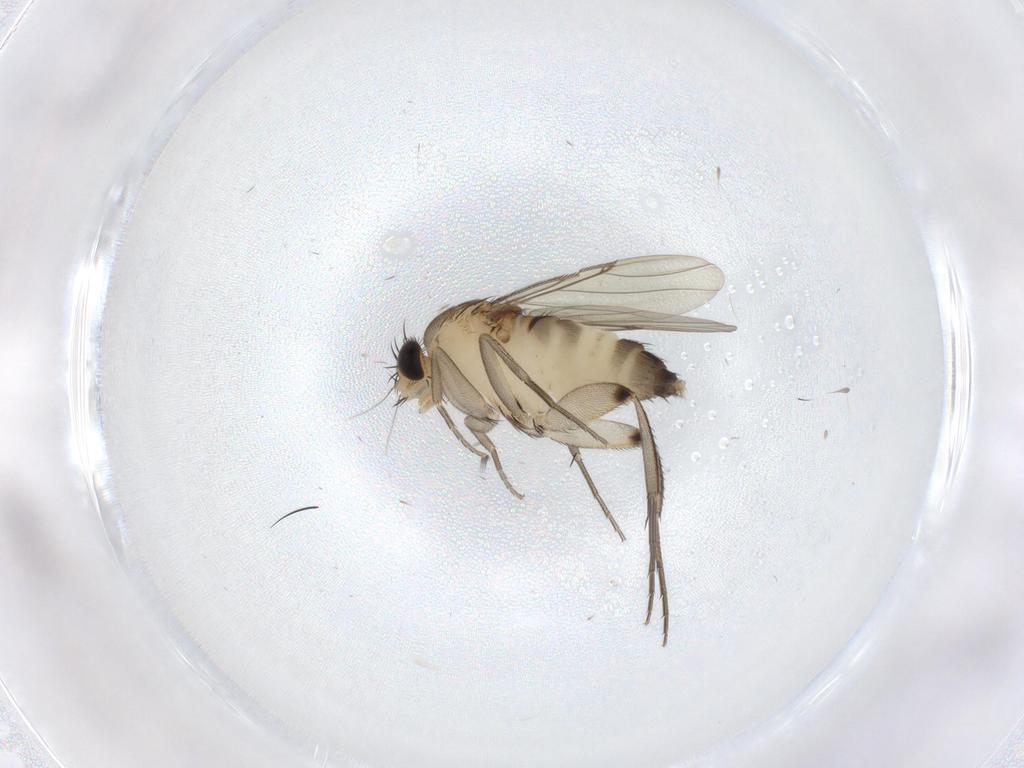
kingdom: Animalia
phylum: Arthropoda
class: Insecta
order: Diptera
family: Phoridae
